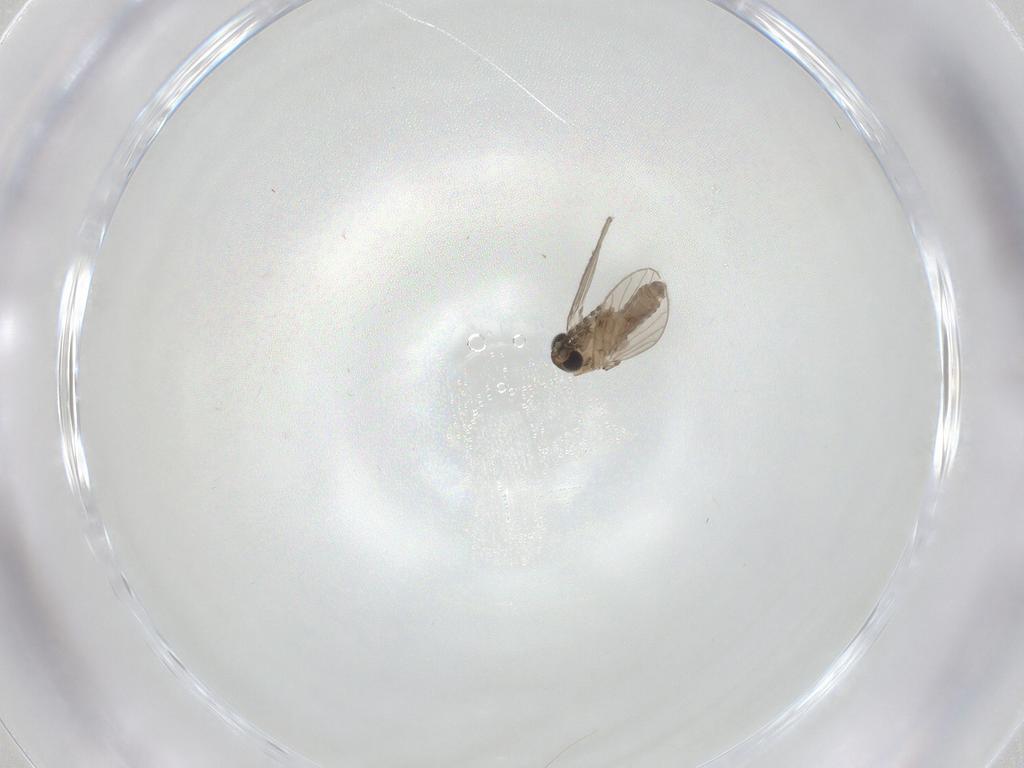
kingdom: Animalia
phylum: Arthropoda
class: Insecta
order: Diptera
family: Psychodidae
